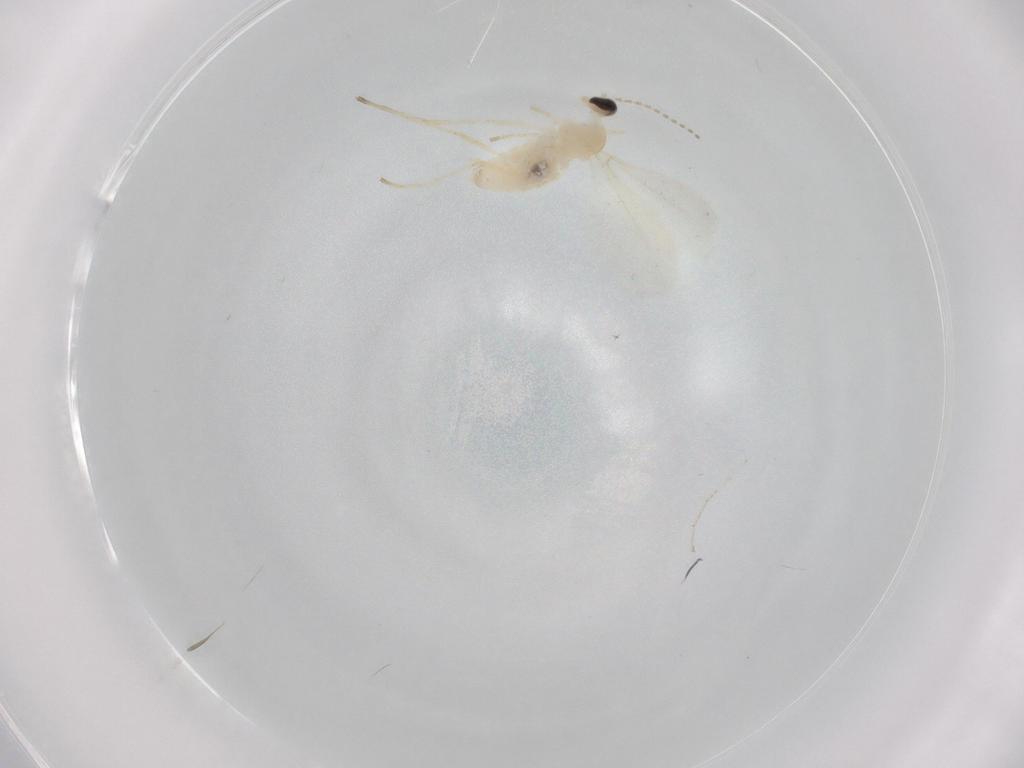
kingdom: Animalia
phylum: Arthropoda
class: Insecta
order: Diptera
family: Cecidomyiidae
